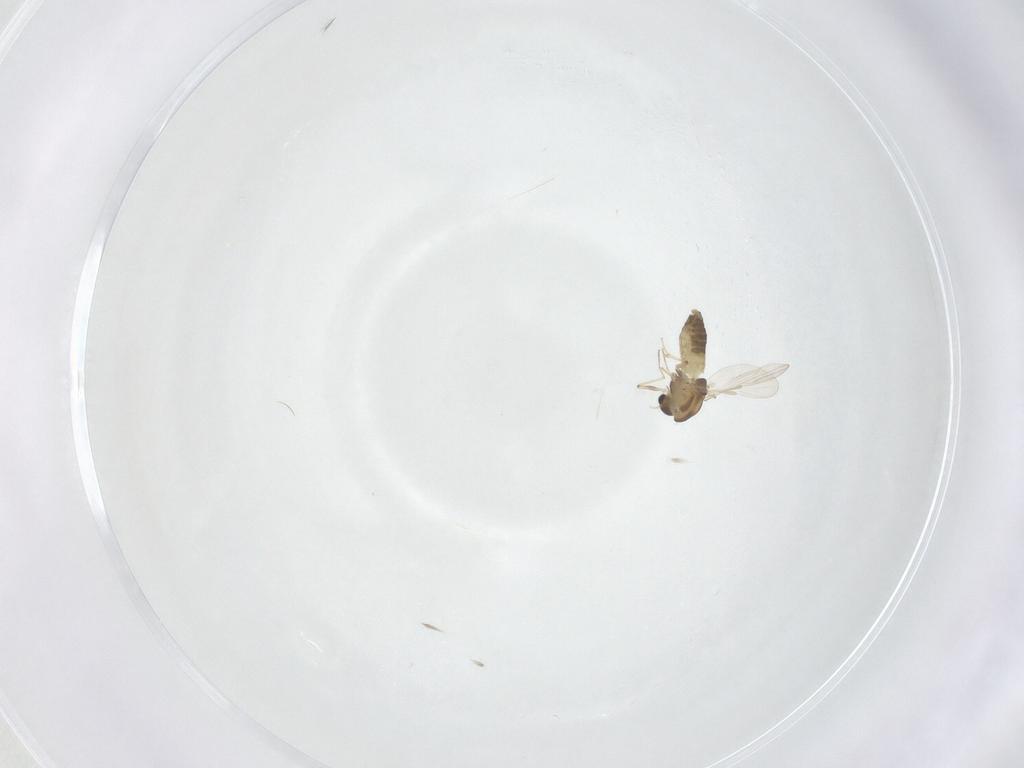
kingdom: Animalia
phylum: Arthropoda
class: Insecta
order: Diptera
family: Chironomidae
